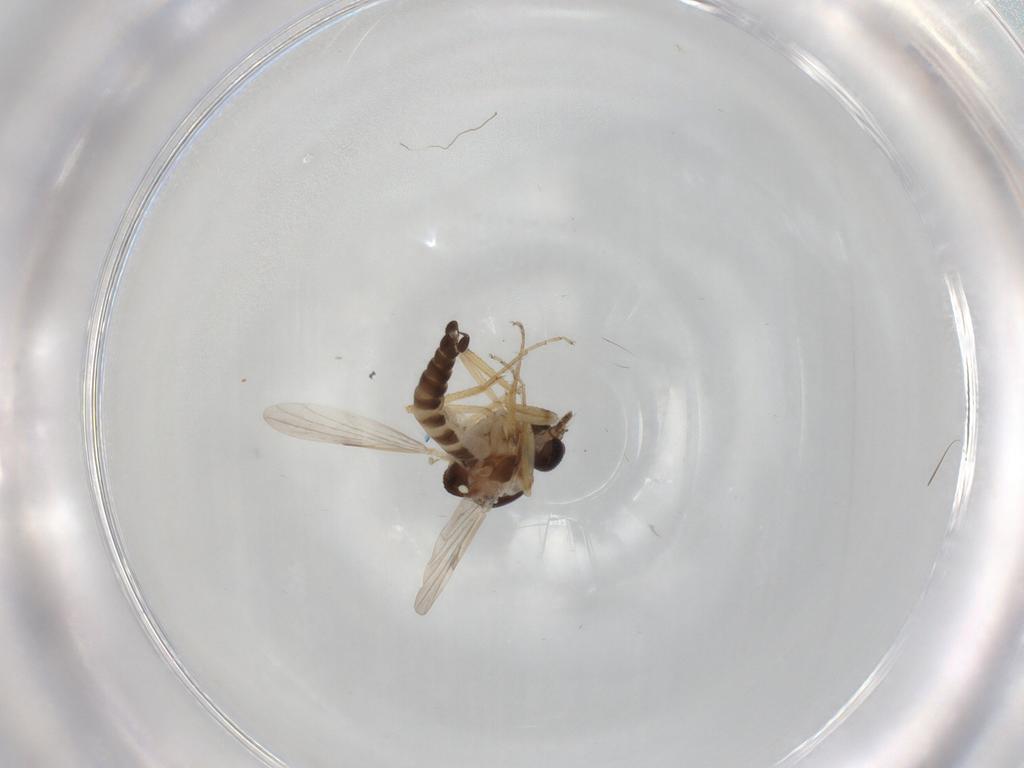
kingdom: Animalia
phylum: Arthropoda
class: Insecta
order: Diptera
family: Ceratopogonidae
